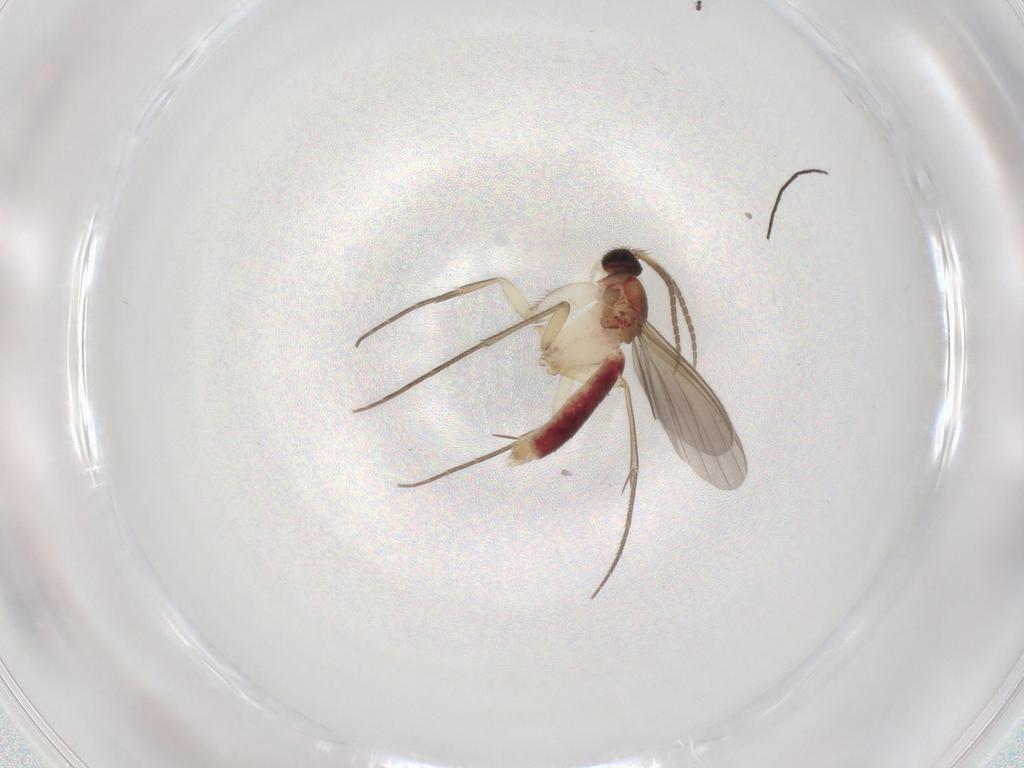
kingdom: Animalia
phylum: Arthropoda
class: Insecta
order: Diptera
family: Mycetophilidae
